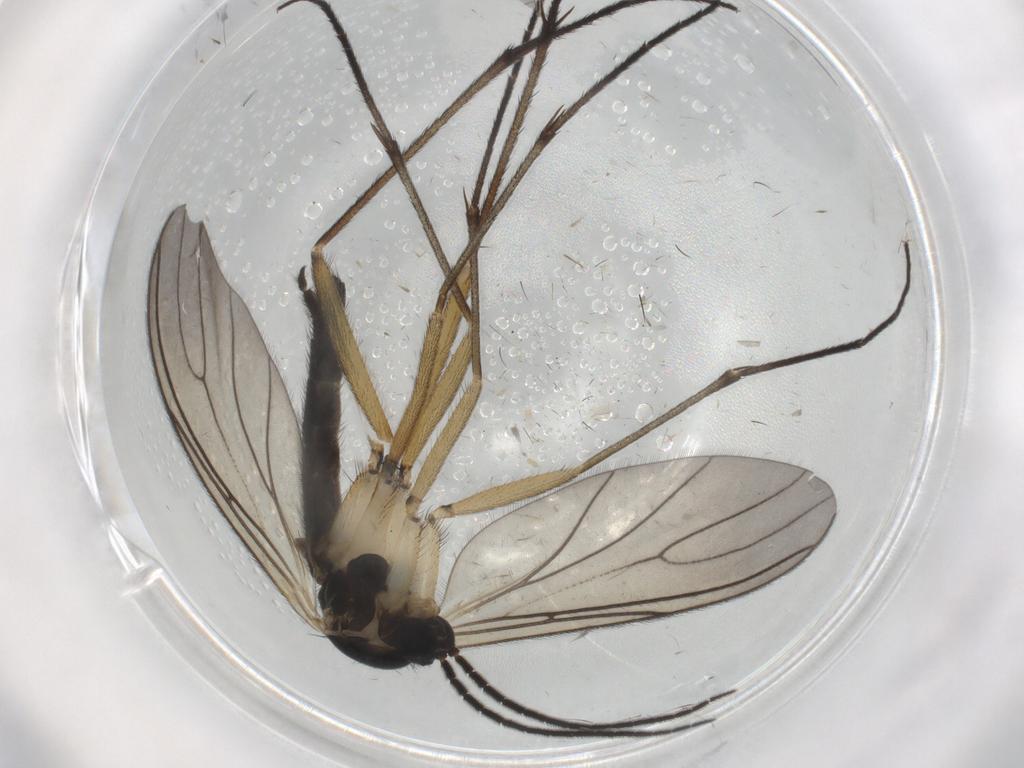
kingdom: Animalia
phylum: Arthropoda
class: Insecta
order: Diptera
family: Sciaridae
